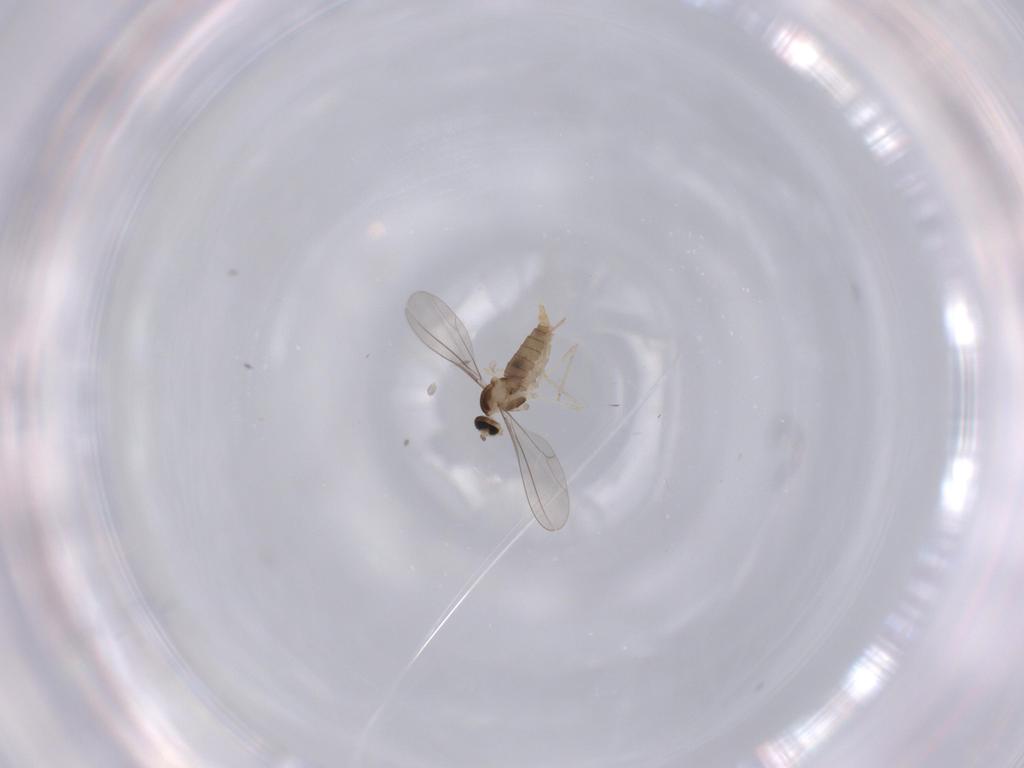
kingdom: Animalia
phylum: Arthropoda
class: Insecta
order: Diptera
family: Cecidomyiidae
